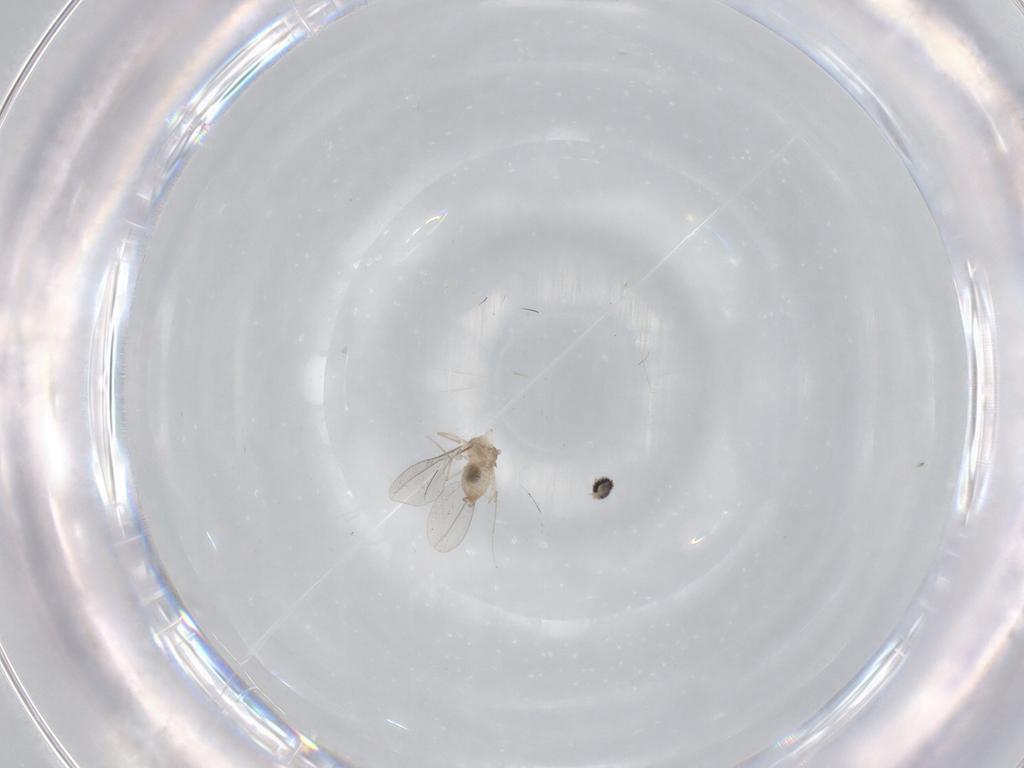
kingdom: Animalia
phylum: Arthropoda
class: Insecta
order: Diptera
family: Cecidomyiidae
